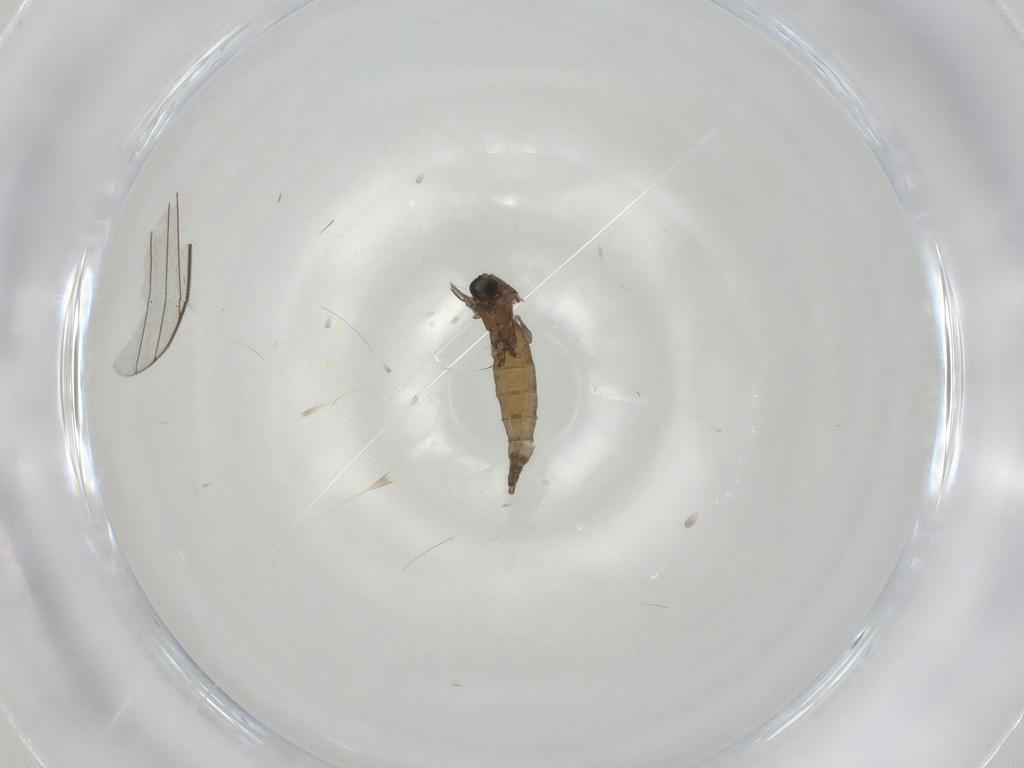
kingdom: Animalia
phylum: Arthropoda
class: Insecta
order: Diptera
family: Sciaridae
